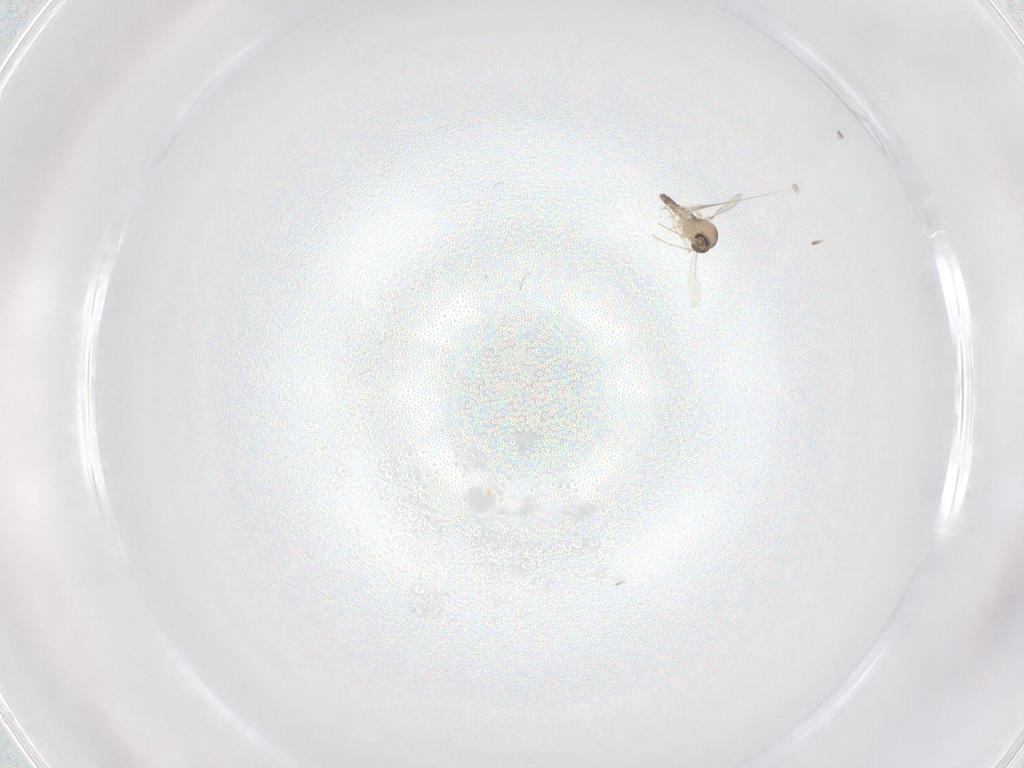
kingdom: Animalia
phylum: Arthropoda
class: Insecta
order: Diptera
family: Ceratopogonidae
